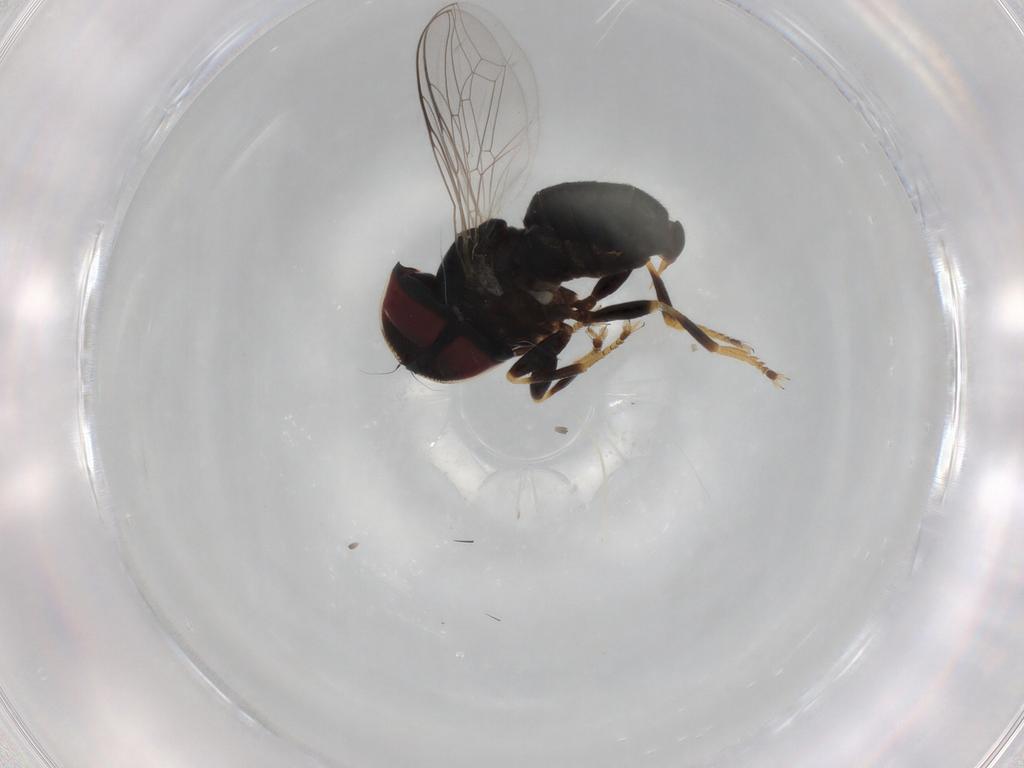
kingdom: Animalia
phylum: Arthropoda
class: Insecta
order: Diptera
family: Pipunculidae
